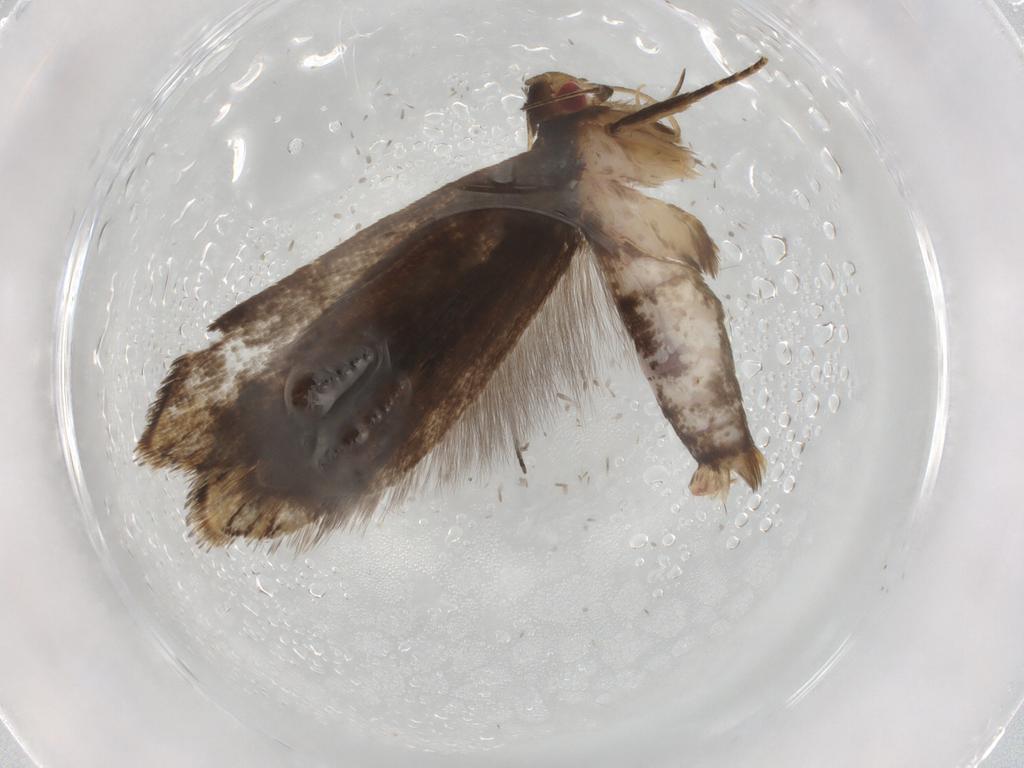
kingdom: Animalia
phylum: Arthropoda
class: Insecta
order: Lepidoptera
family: Gelechiidae
